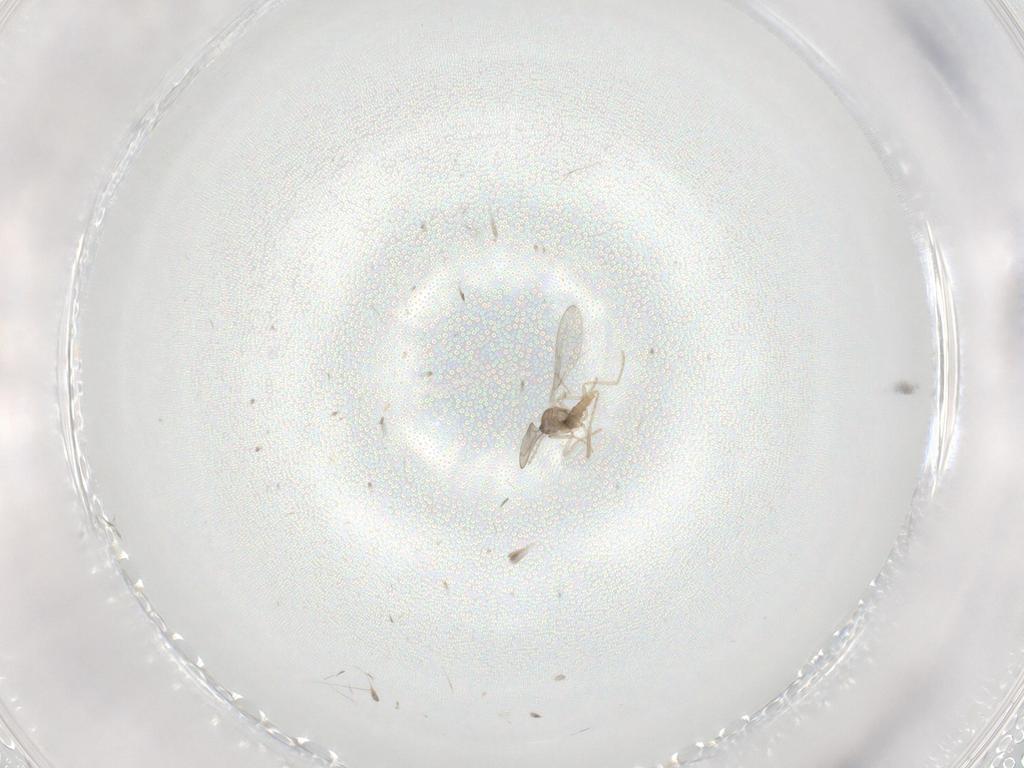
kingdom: Animalia
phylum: Arthropoda
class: Insecta
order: Diptera
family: Cecidomyiidae
